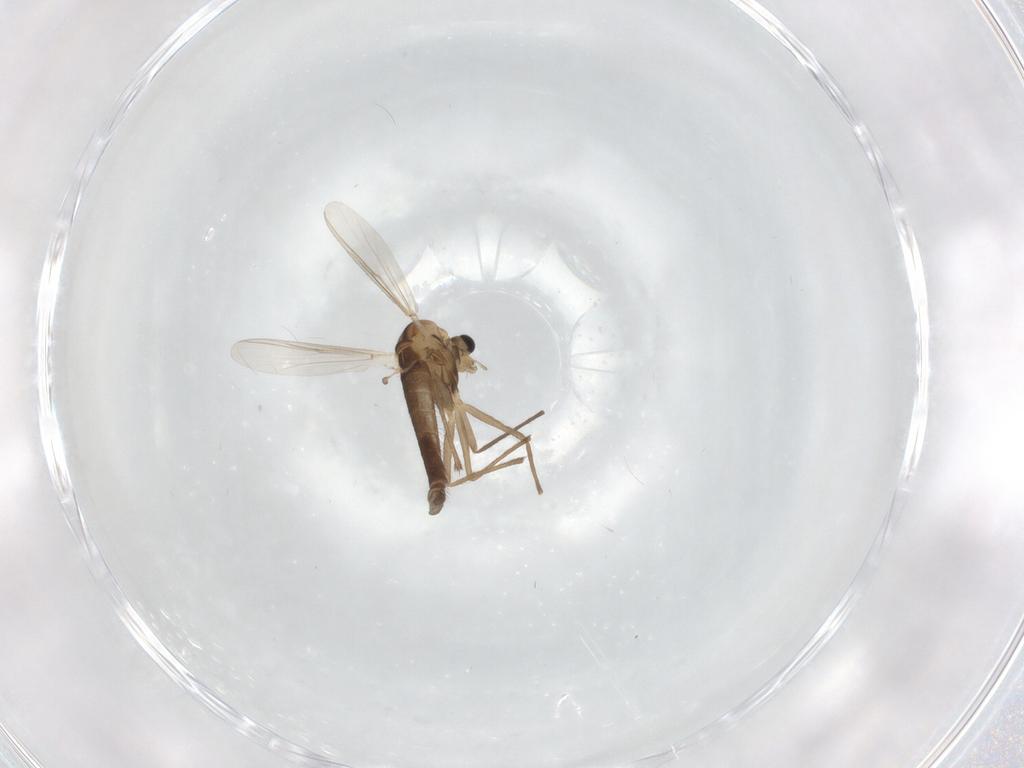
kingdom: Animalia
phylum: Arthropoda
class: Insecta
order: Diptera
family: Chironomidae
